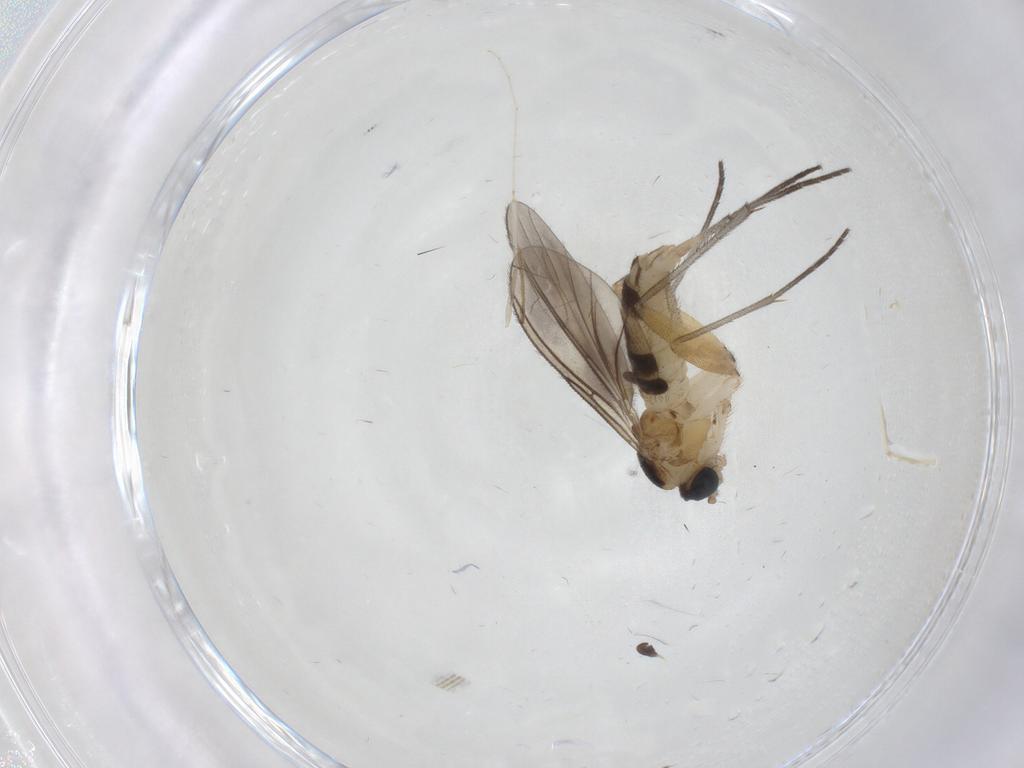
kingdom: Animalia
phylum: Arthropoda
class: Insecta
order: Diptera
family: Sciaridae
